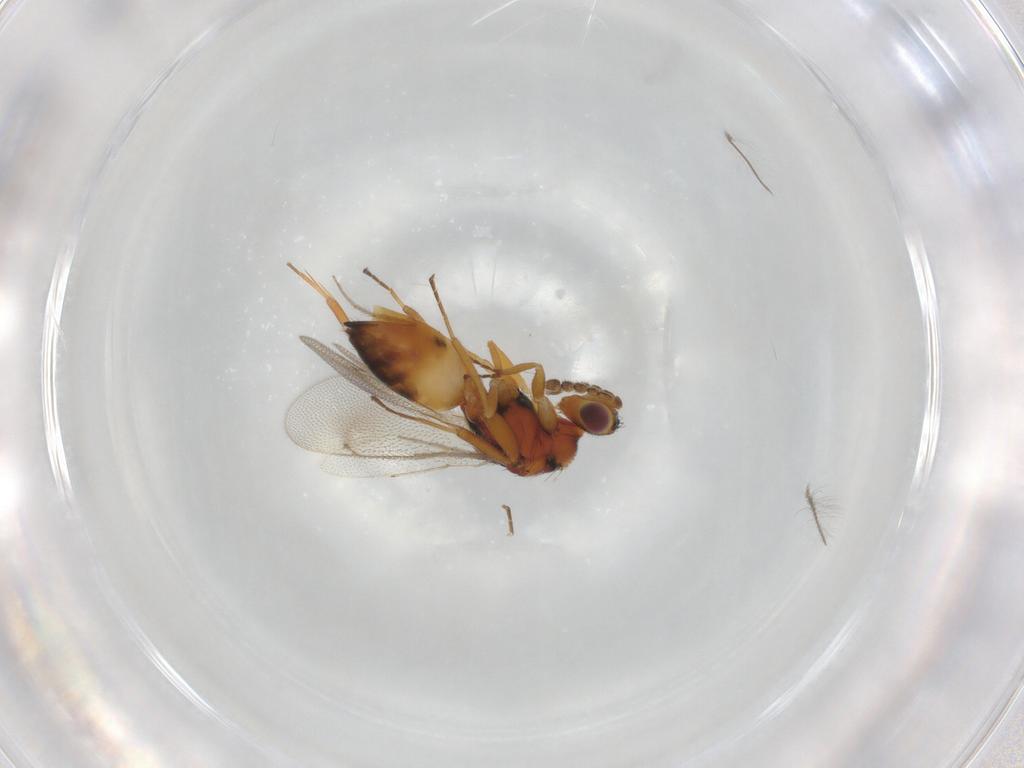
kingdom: Animalia
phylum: Arthropoda
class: Insecta
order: Hymenoptera
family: Eulophidae
